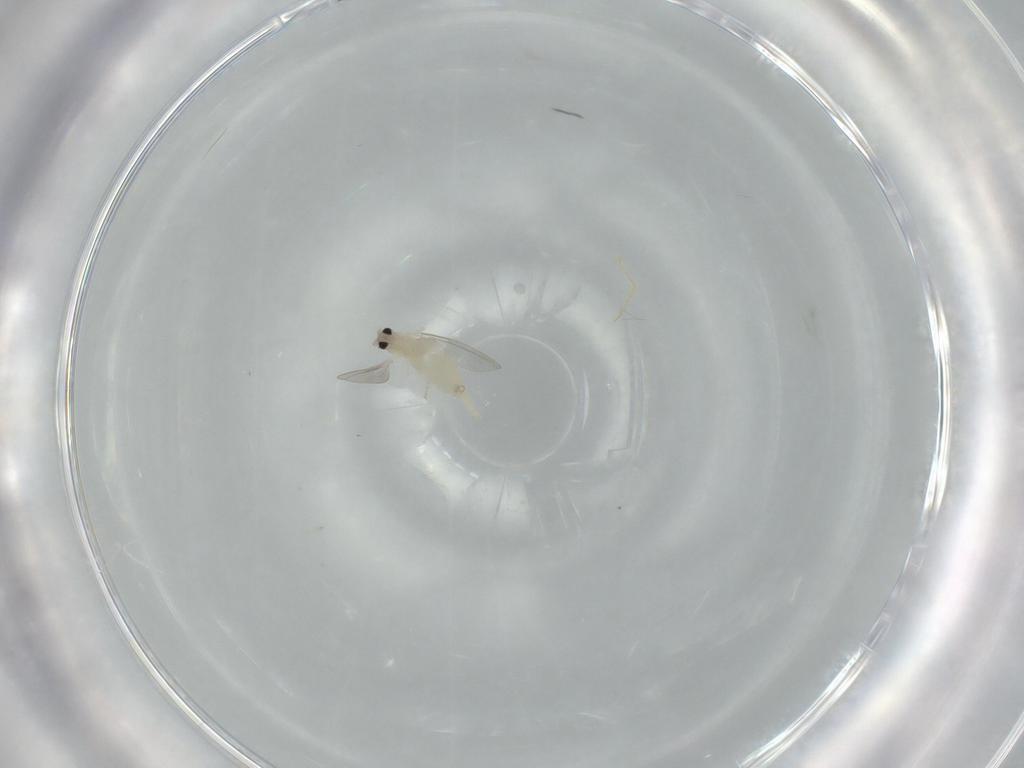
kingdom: Animalia
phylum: Arthropoda
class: Insecta
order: Diptera
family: Cecidomyiidae
